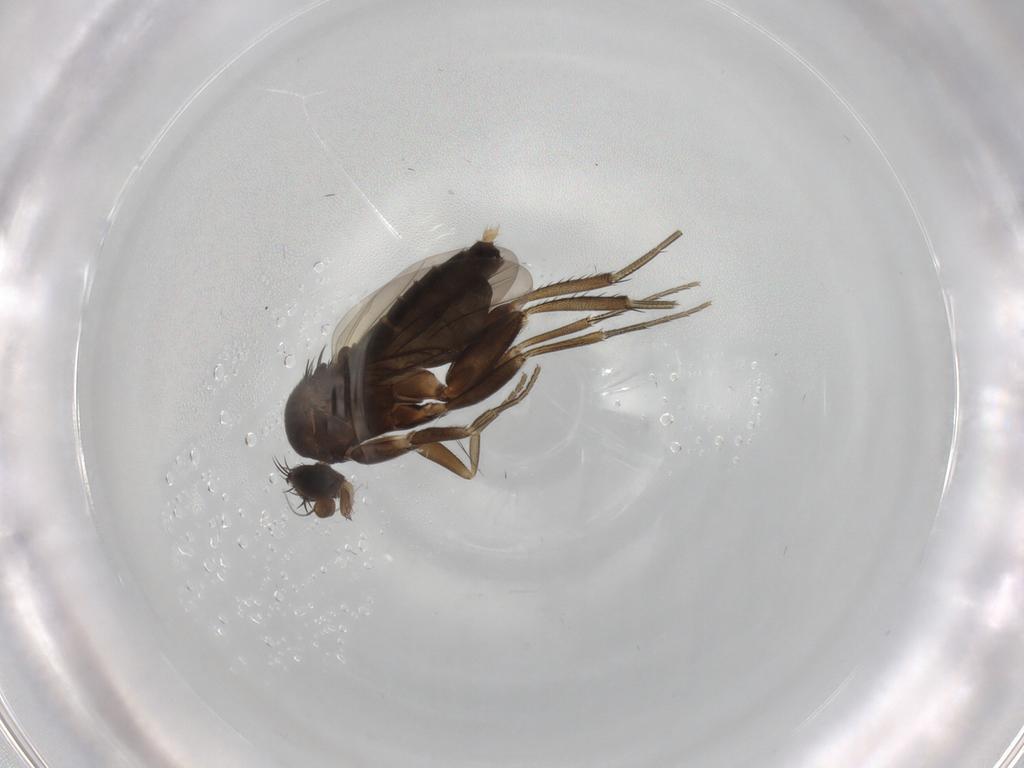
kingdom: Animalia
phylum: Arthropoda
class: Insecta
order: Diptera
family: Phoridae
